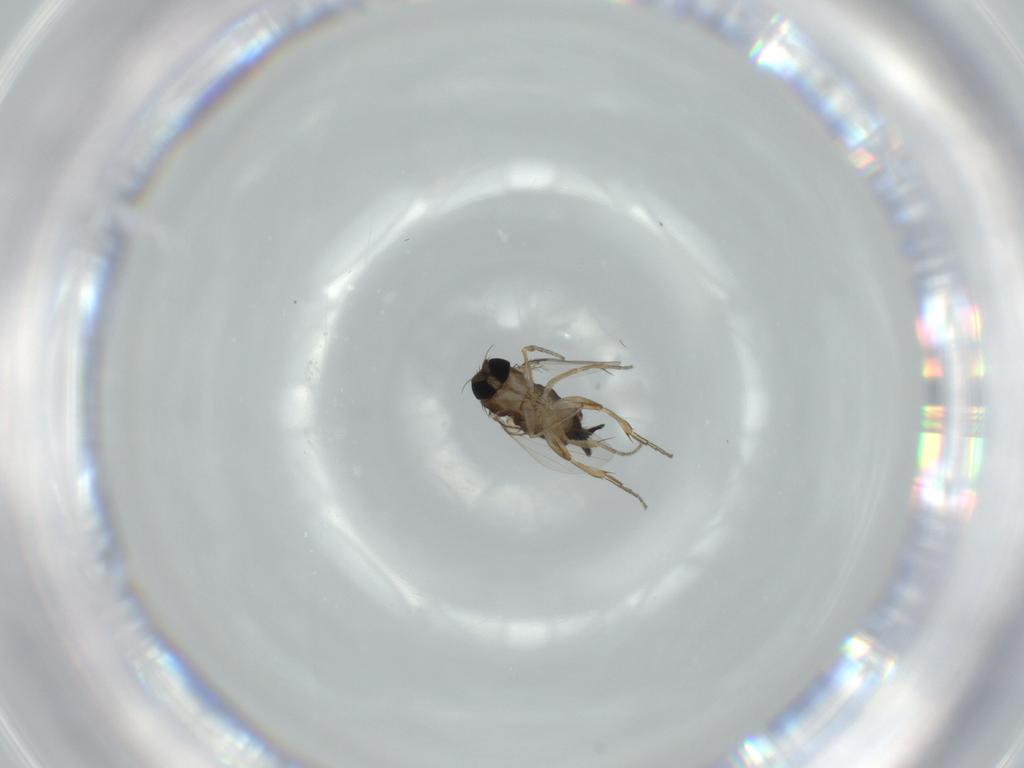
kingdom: Animalia
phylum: Arthropoda
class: Insecta
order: Diptera
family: Phoridae
